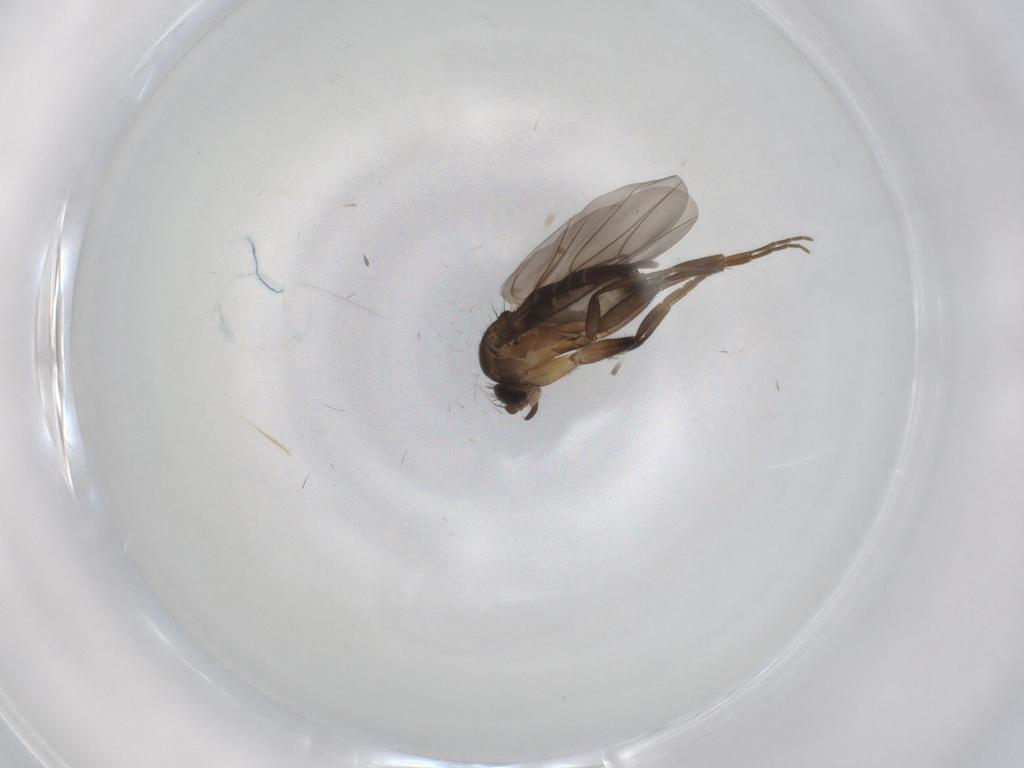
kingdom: Animalia
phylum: Arthropoda
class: Insecta
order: Diptera
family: Phoridae
